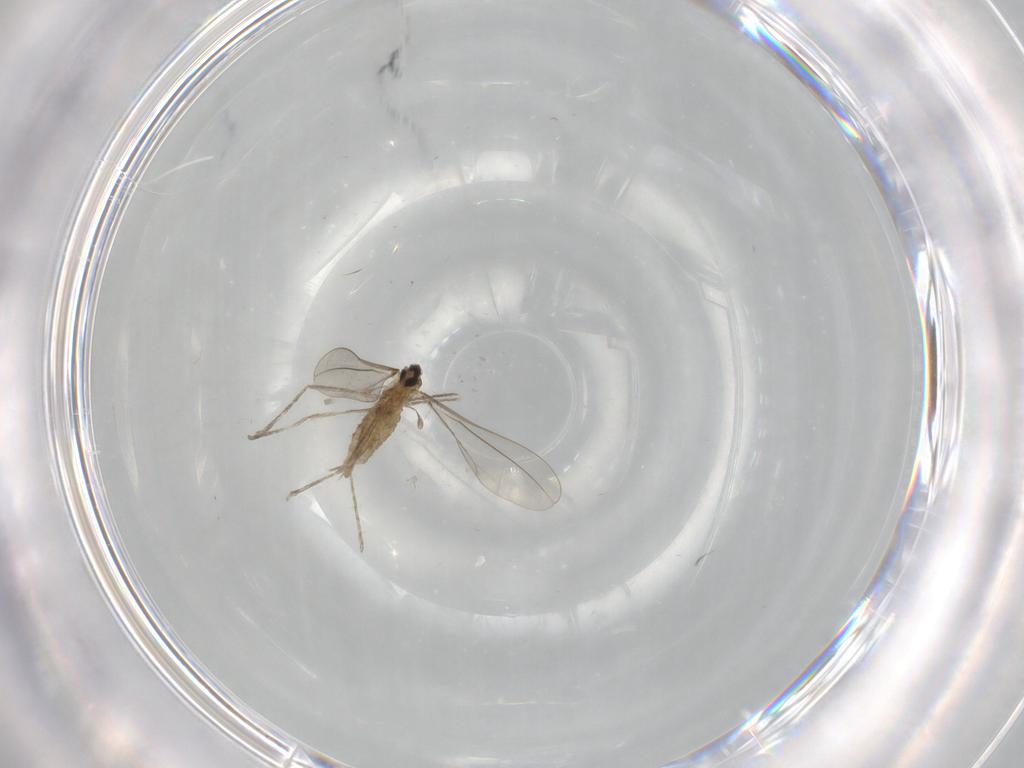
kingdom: Animalia
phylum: Arthropoda
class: Insecta
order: Diptera
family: Cecidomyiidae
